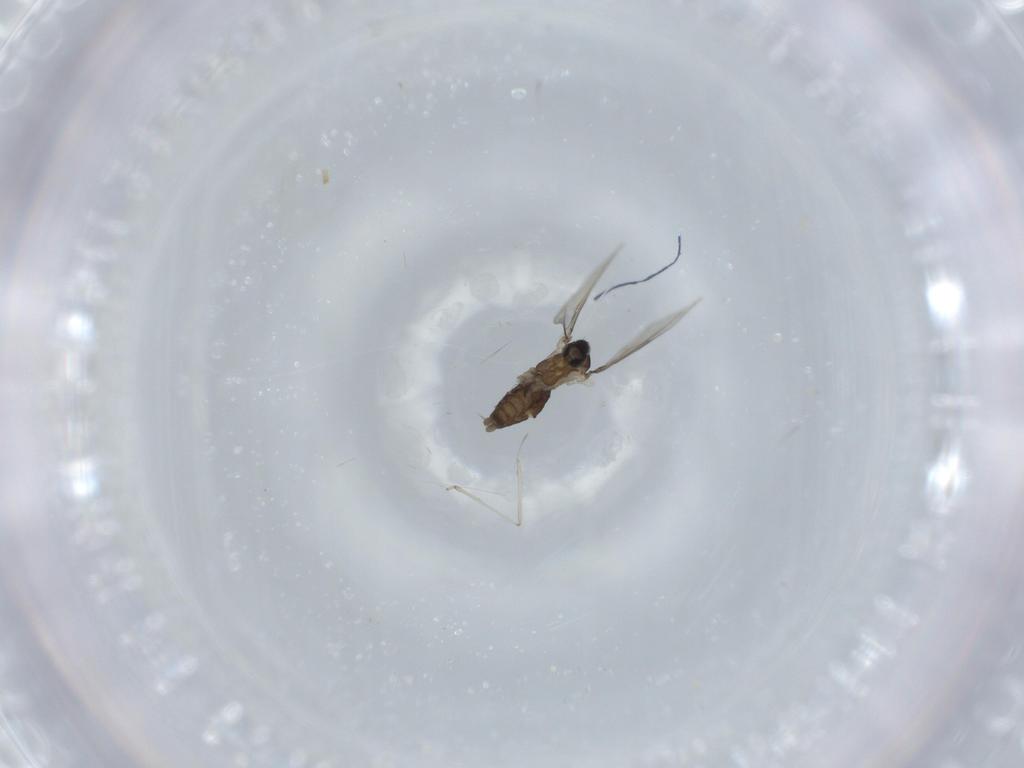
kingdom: Animalia
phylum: Arthropoda
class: Insecta
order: Diptera
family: Cecidomyiidae
